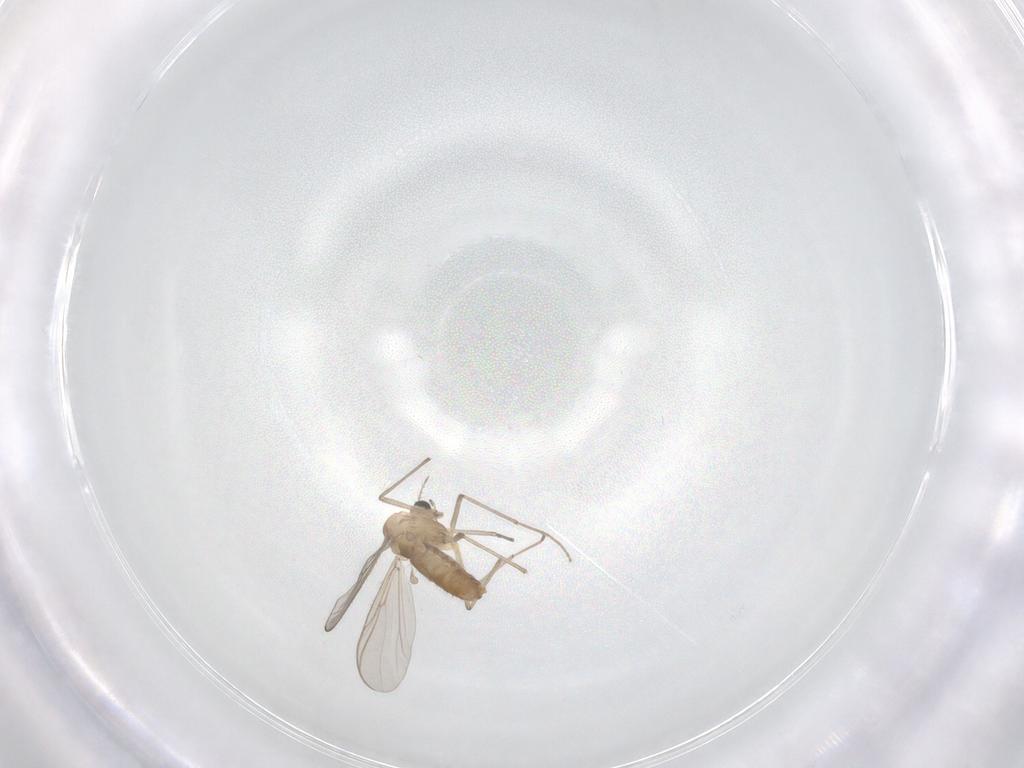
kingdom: Animalia
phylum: Arthropoda
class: Insecta
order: Diptera
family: Chironomidae
